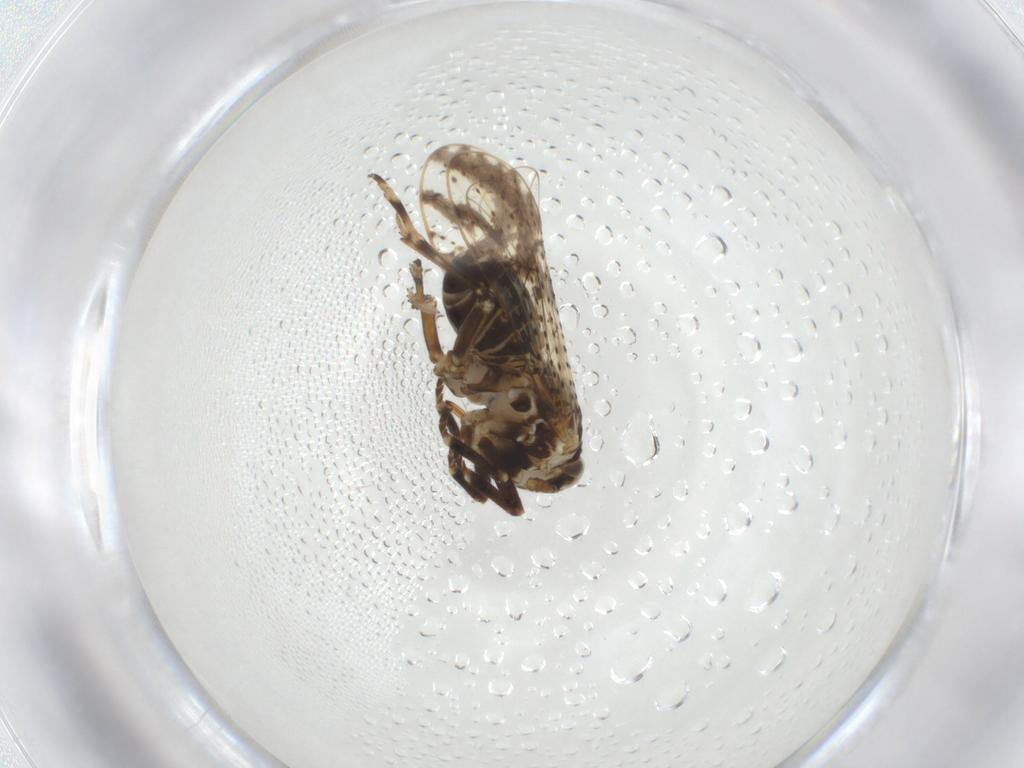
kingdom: Animalia
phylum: Arthropoda
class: Insecta
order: Hemiptera
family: Delphacidae
